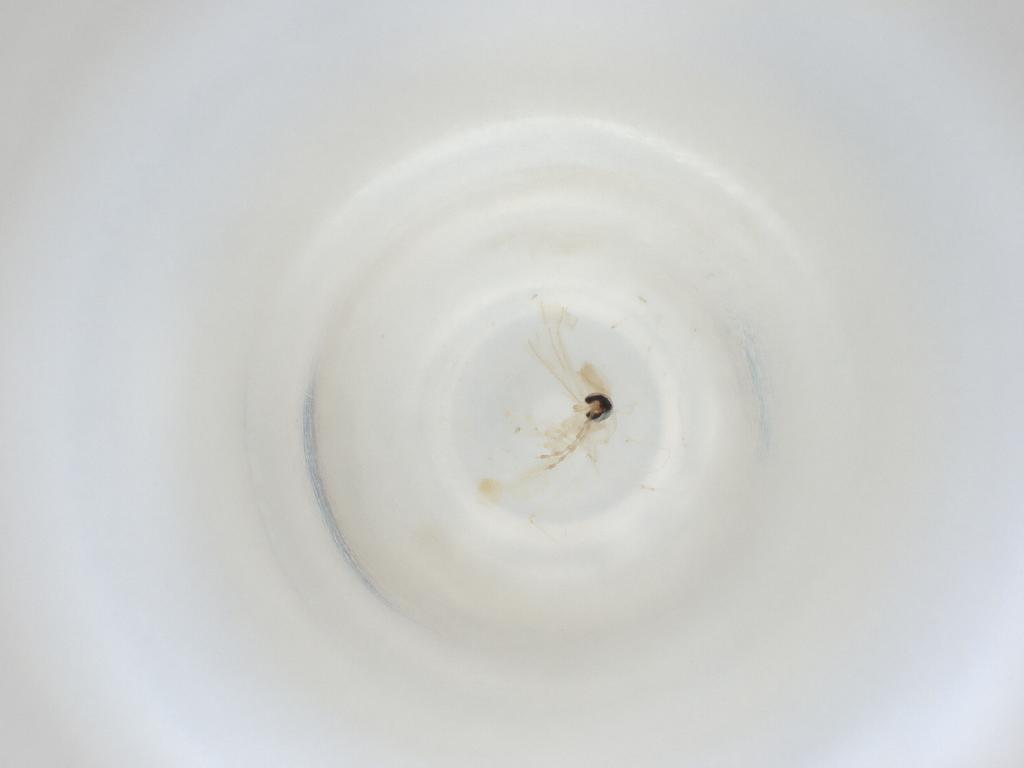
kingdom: Animalia
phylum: Arthropoda
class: Insecta
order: Diptera
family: Cecidomyiidae
